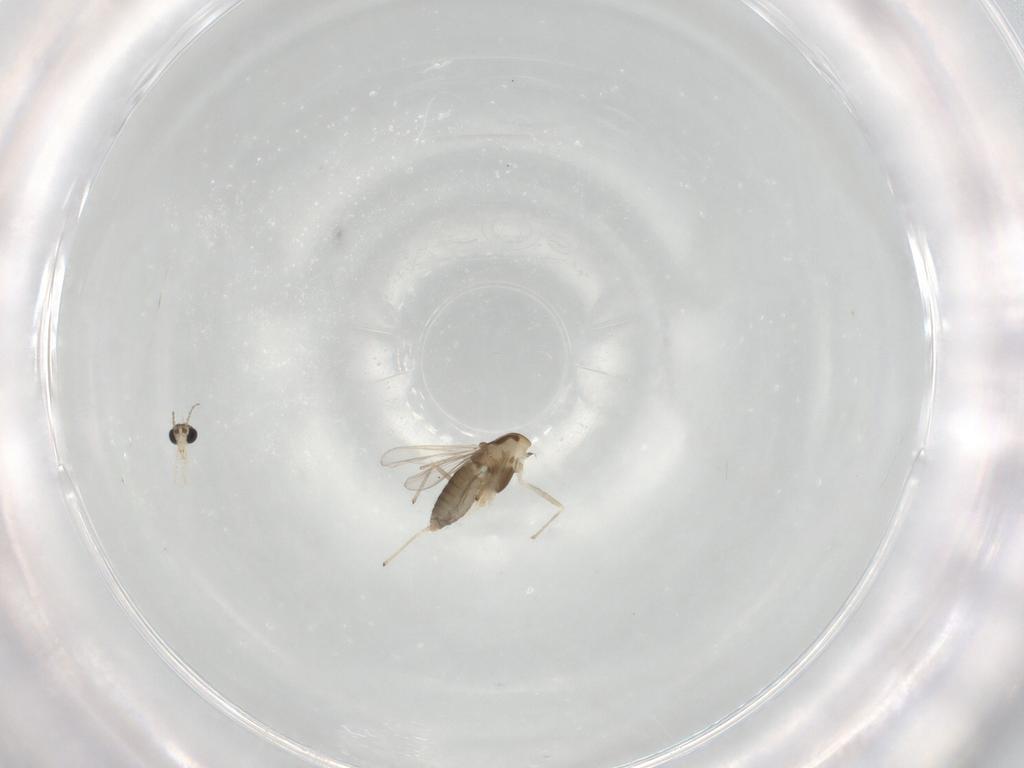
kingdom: Animalia
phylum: Arthropoda
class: Insecta
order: Diptera
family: Chironomidae
